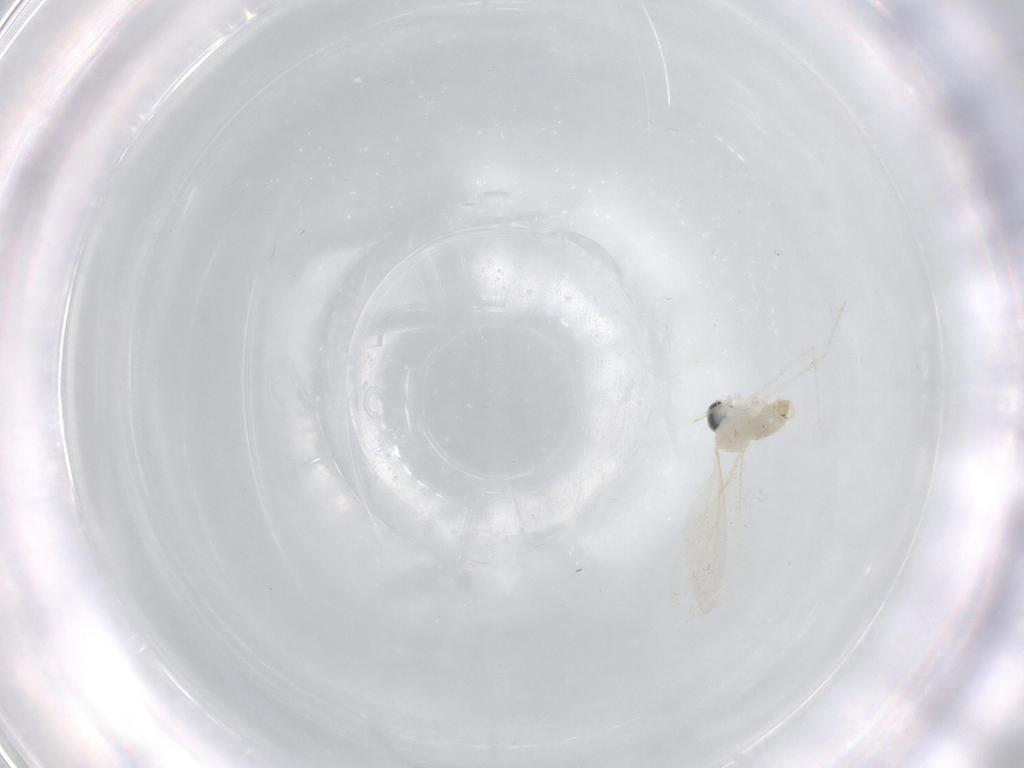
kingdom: Animalia
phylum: Arthropoda
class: Insecta
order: Diptera
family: Cecidomyiidae
